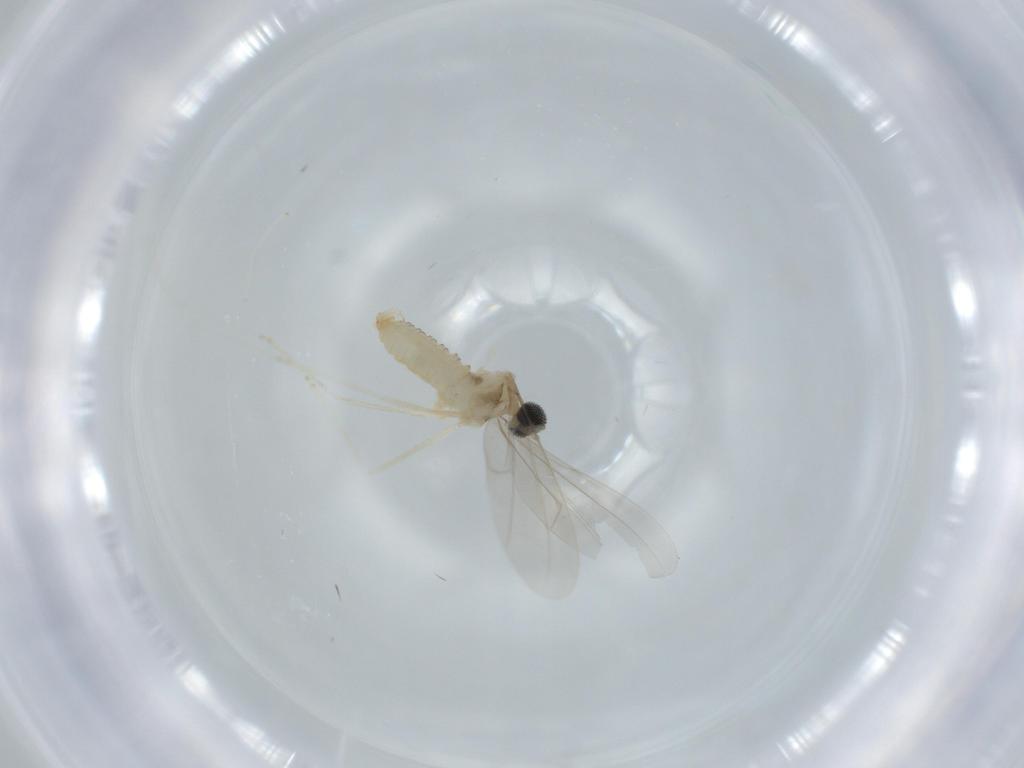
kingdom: Animalia
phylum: Arthropoda
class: Insecta
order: Diptera
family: Cecidomyiidae
